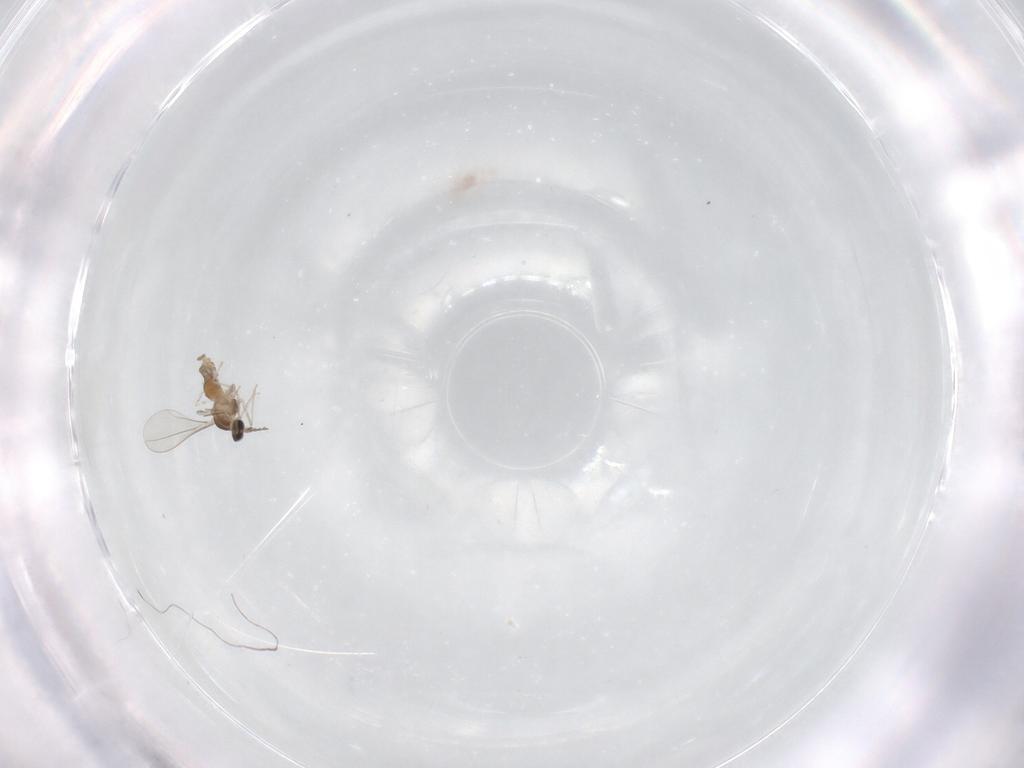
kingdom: Animalia
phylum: Arthropoda
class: Insecta
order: Diptera
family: Cecidomyiidae
